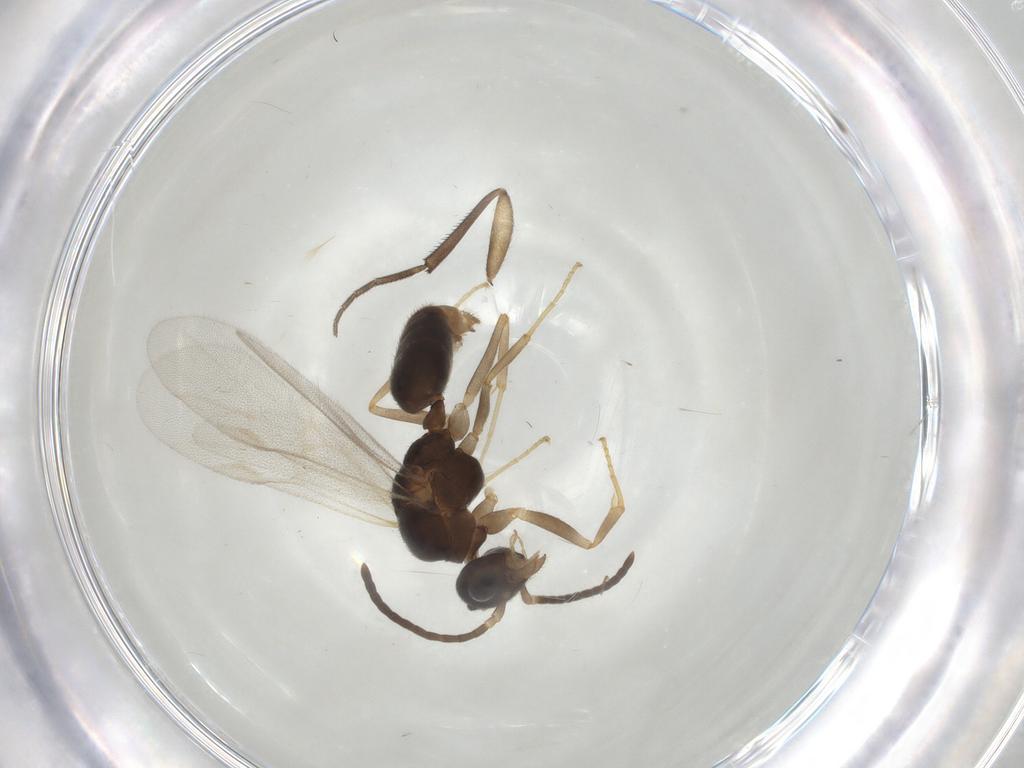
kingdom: Animalia
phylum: Arthropoda
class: Insecta
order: Hymenoptera
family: Formicidae
